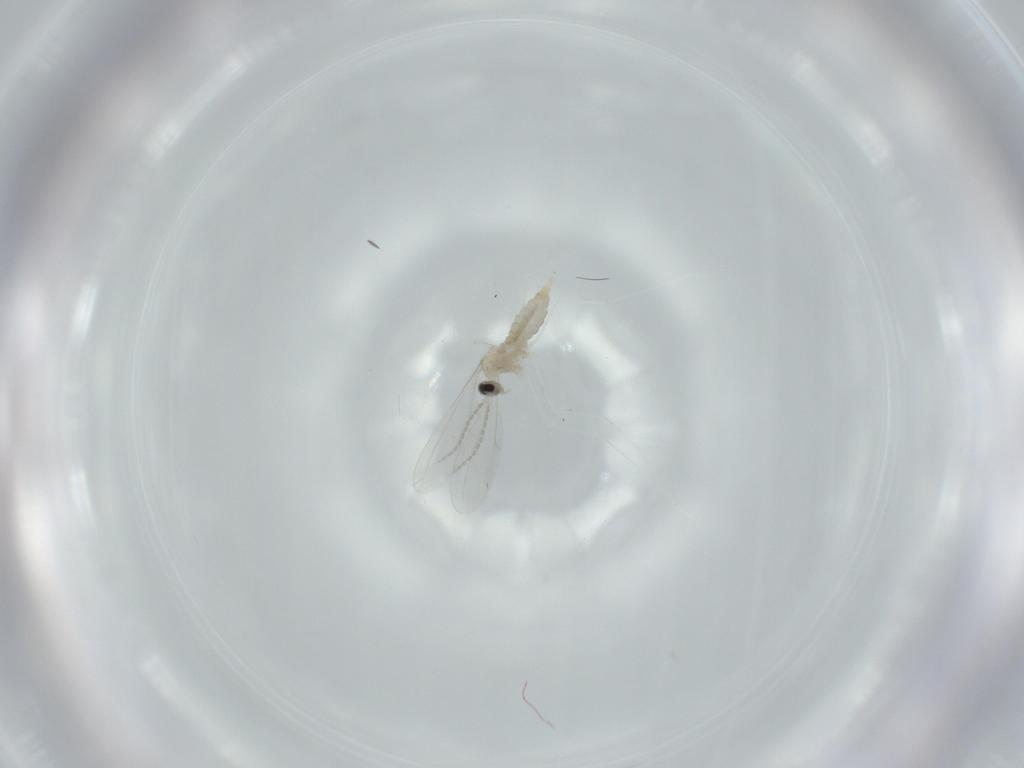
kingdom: Animalia
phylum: Arthropoda
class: Insecta
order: Diptera
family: Cecidomyiidae
